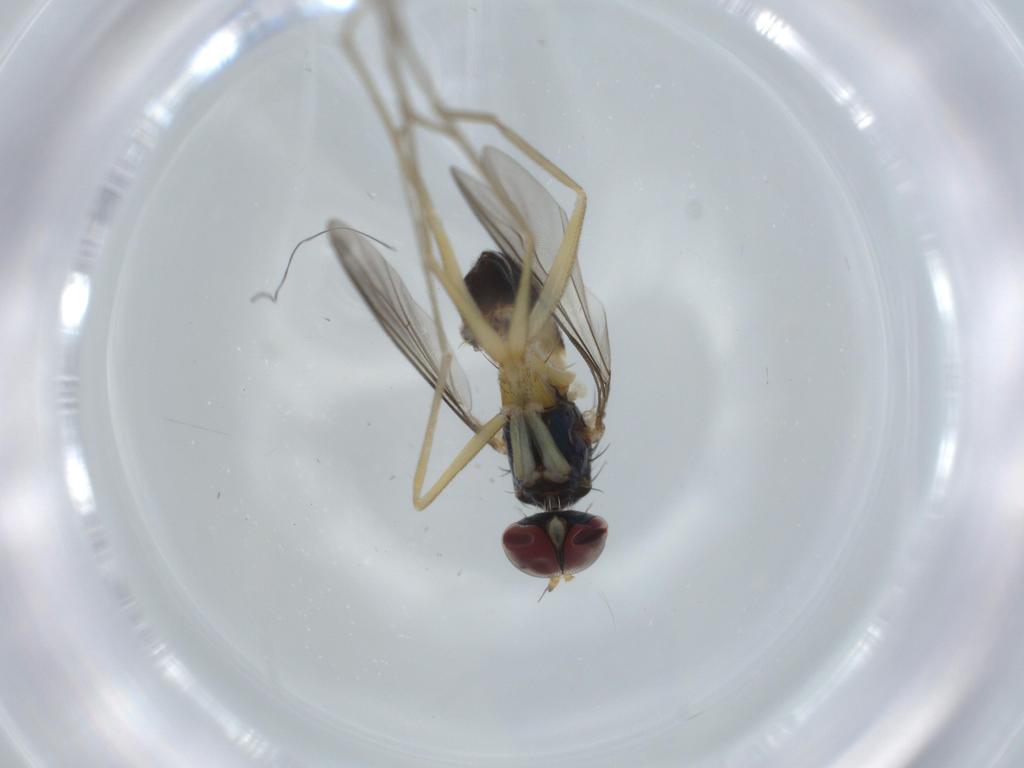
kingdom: Animalia
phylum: Arthropoda
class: Insecta
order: Diptera
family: Dolichopodidae
